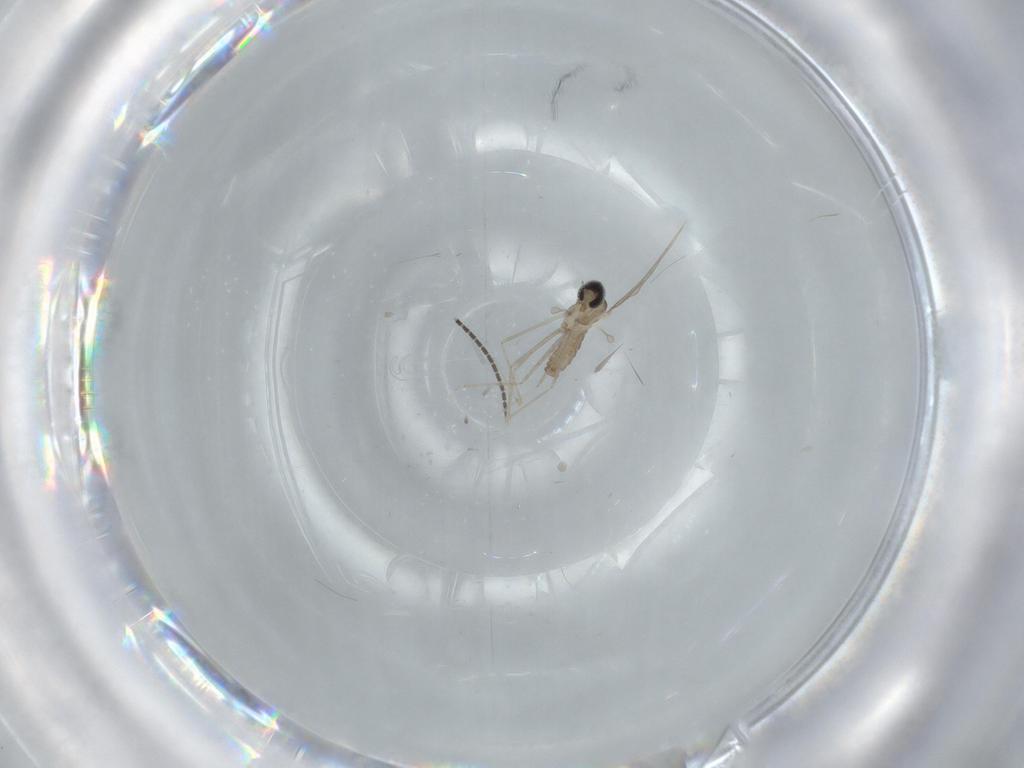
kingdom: Animalia
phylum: Arthropoda
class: Insecta
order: Diptera
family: Cecidomyiidae
